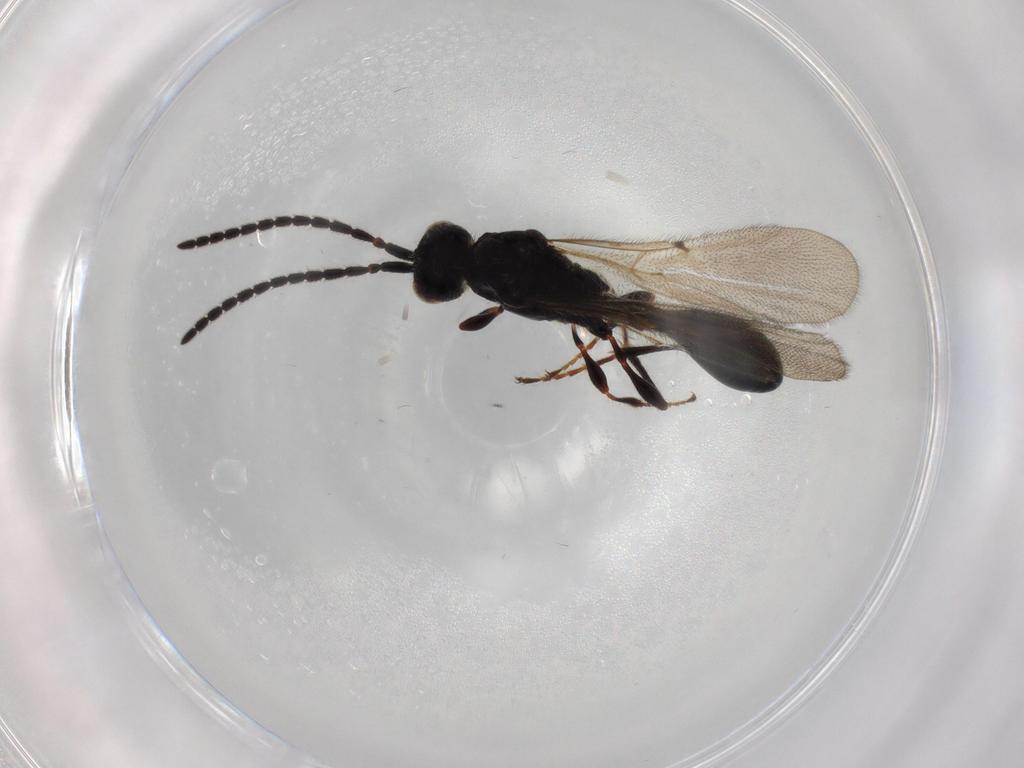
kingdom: Animalia
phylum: Arthropoda
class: Insecta
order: Hymenoptera
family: Diapriidae
